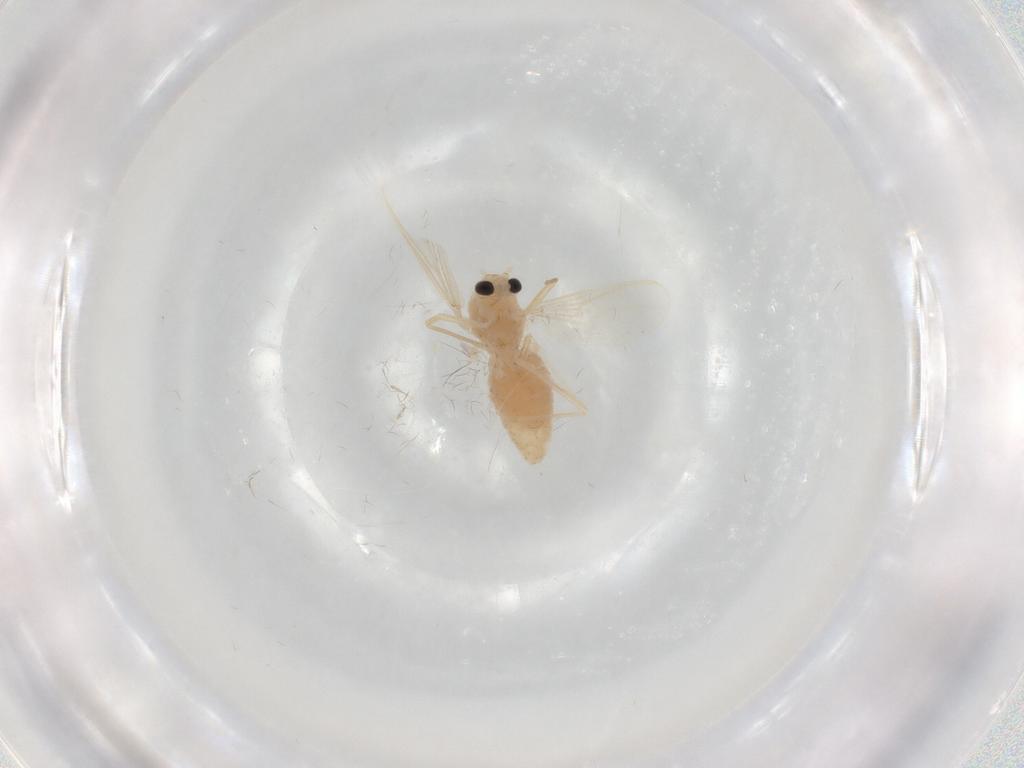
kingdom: Animalia
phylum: Arthropoda
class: Insecta
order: Diptera
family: Chironomidae
